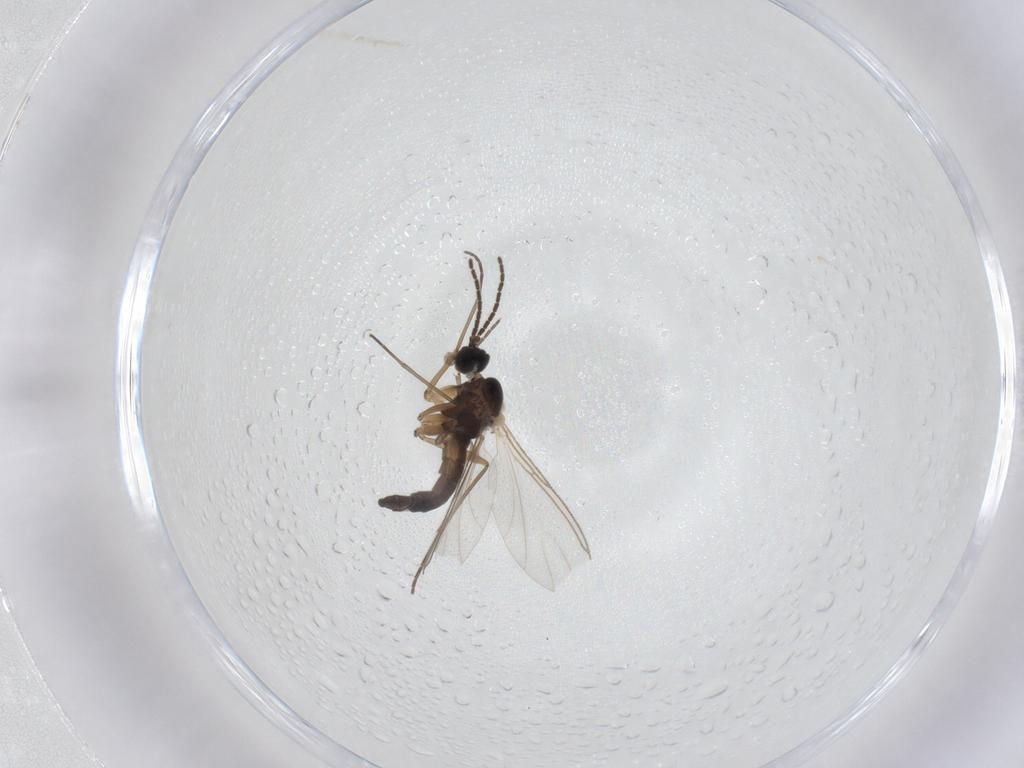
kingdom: Animalia
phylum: Arthropoda
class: Insecta
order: Diptera
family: Sciaridae
